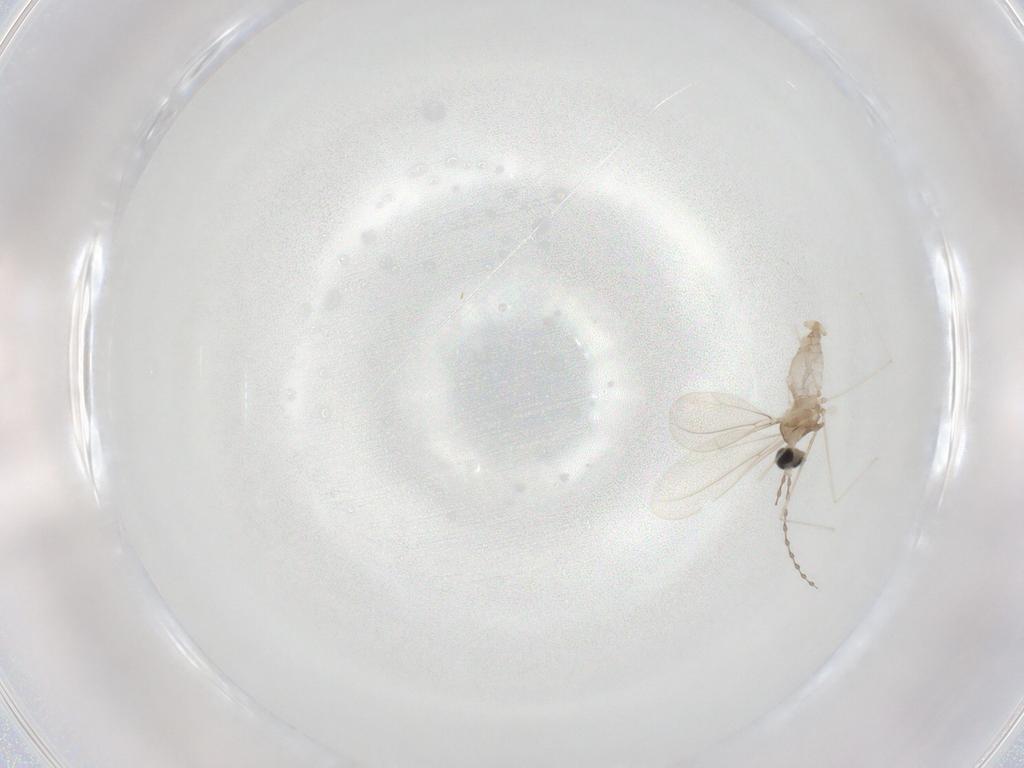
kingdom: Animalia
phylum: Arthropoda
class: Insecta
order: Diptera
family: Cecidomyiidae
